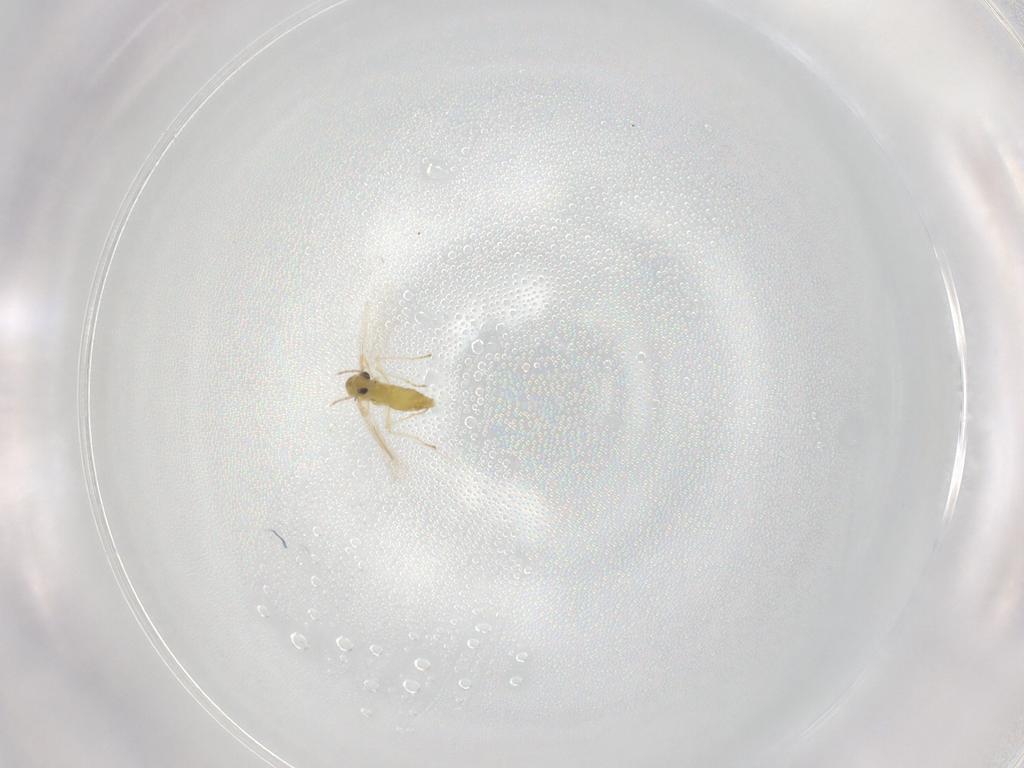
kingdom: Animalia
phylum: Arthropoda
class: Insecta
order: Diptera
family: Chironomidae
